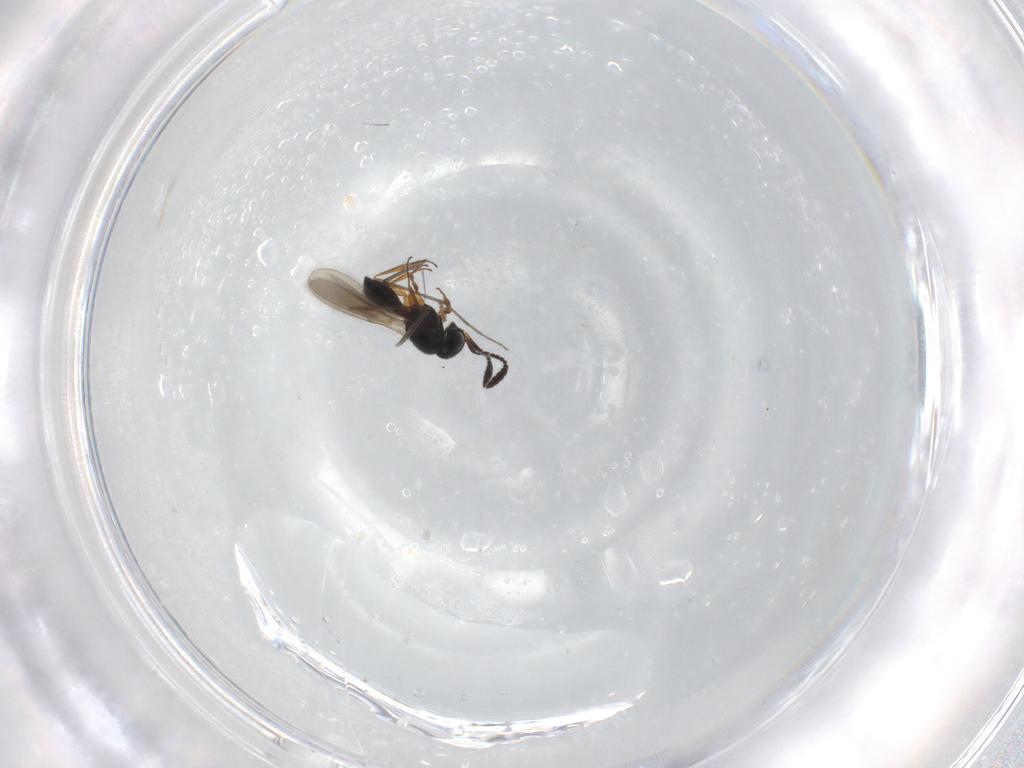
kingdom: Animalia
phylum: Arthropoda
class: Insecta
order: Hymenoptera
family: Scelionidae
